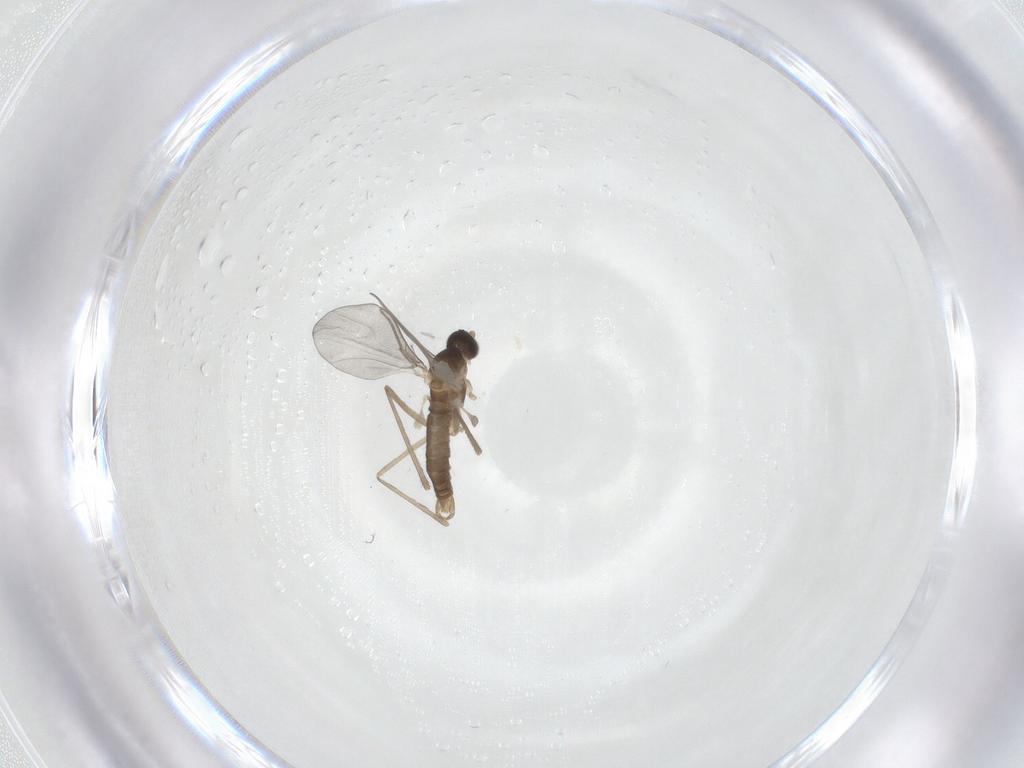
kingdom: Animalia
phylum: Arthropoda
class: Insecta
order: Diptera
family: Cecidomyiidae
